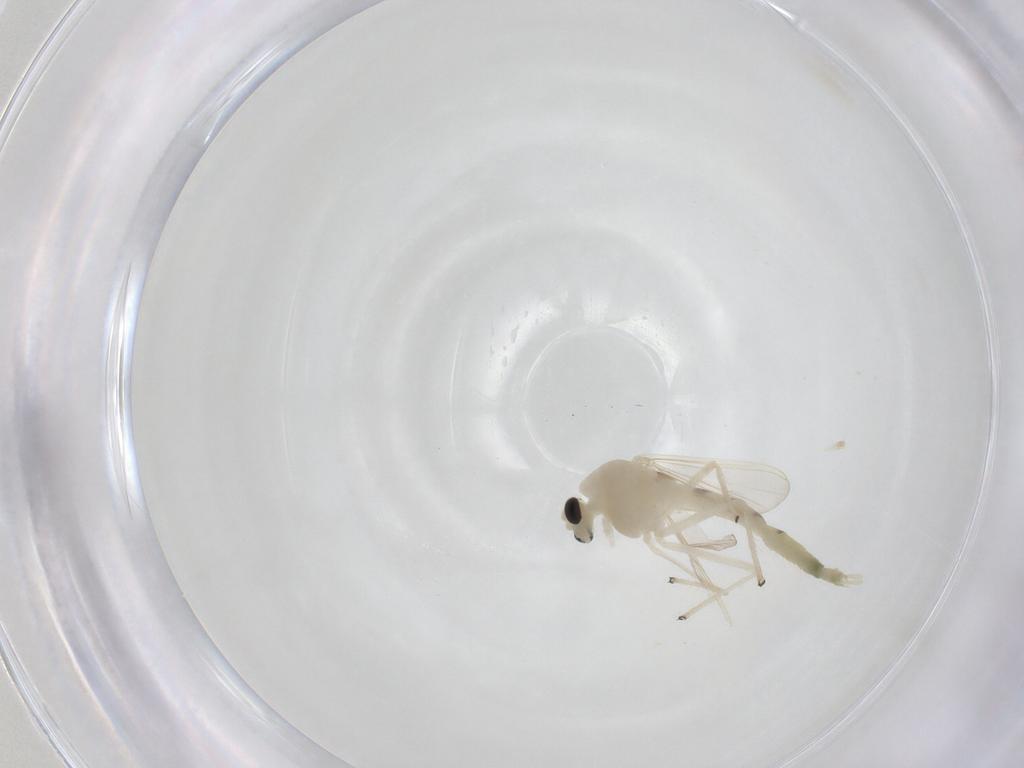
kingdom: Animalia
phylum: Arthropoda
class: Insecta
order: Diptera
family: Chironomidae
